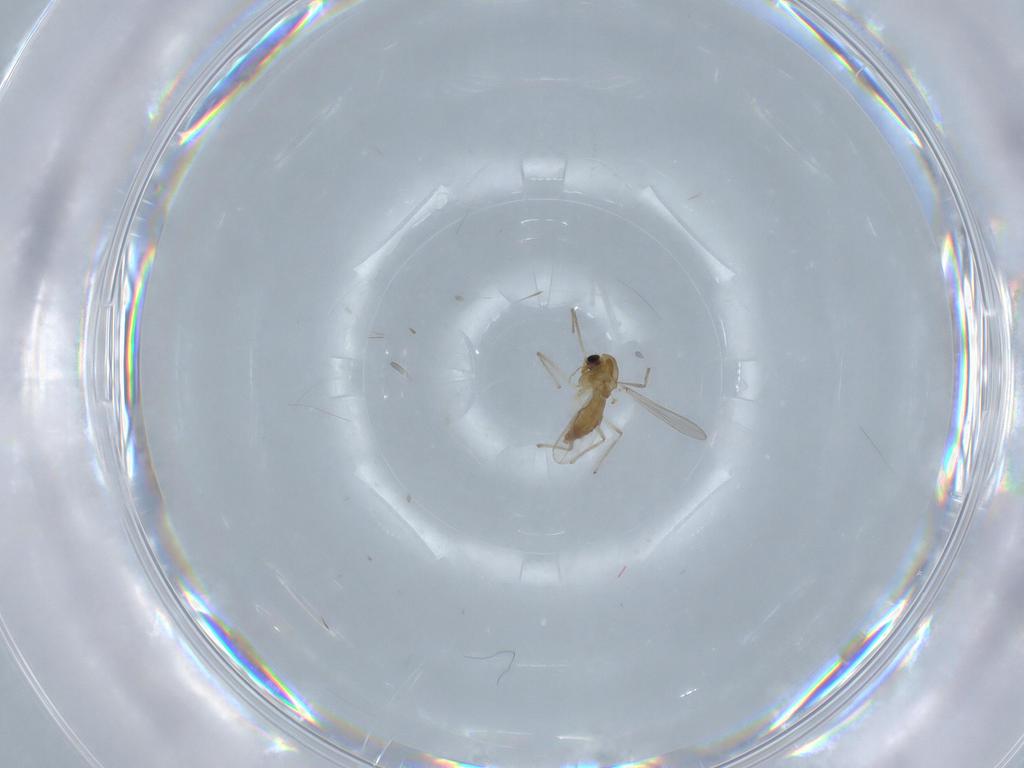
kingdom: Animalia
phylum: Arthropoda
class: Insecta
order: Diptera
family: Chironomidae
